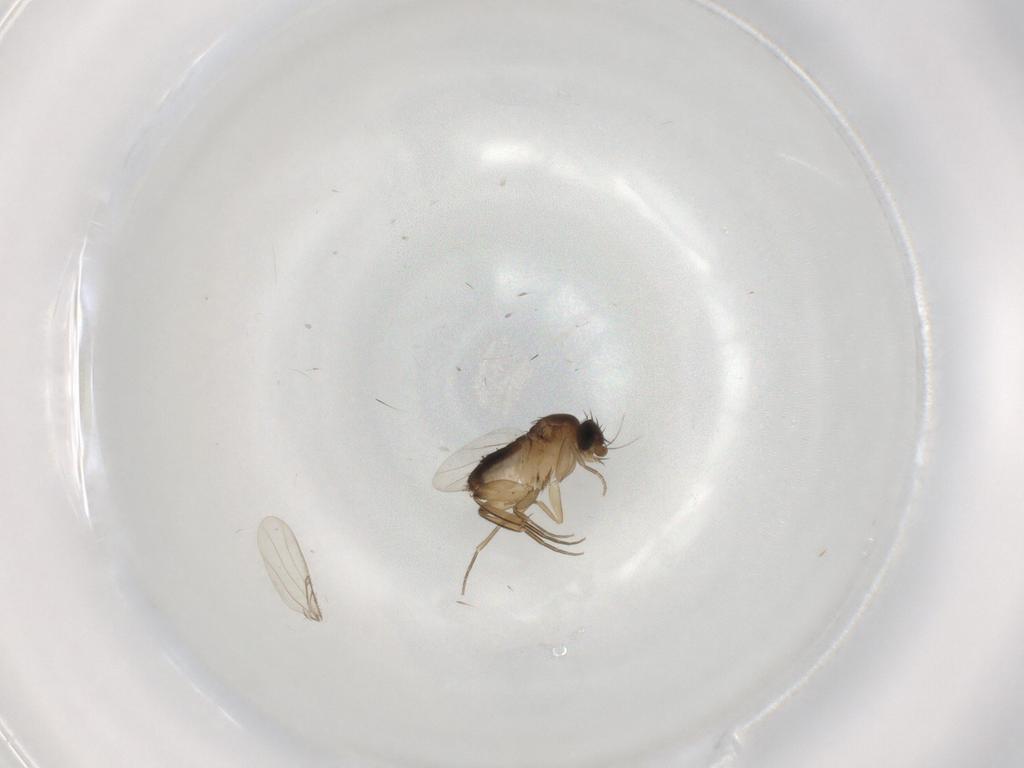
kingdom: Animalia
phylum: Arthropoda
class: Insecta
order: Diptera
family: Phoridae
